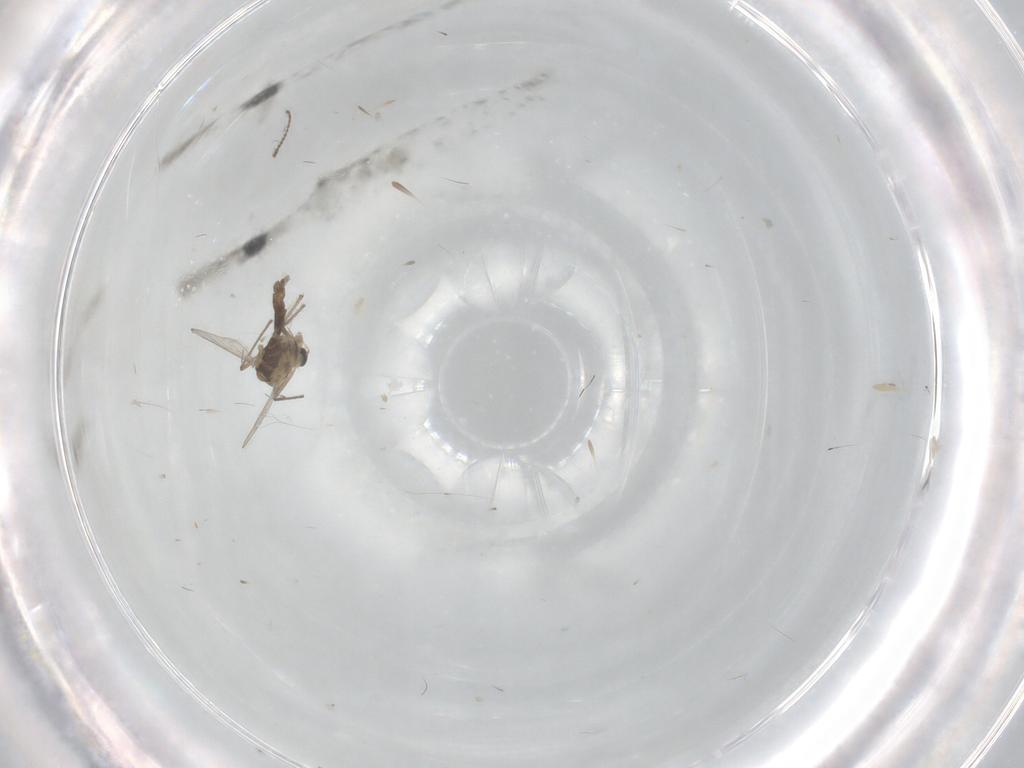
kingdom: Animalia
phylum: Arthropoda
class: Insecta
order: Diptera
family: Chironomidae
